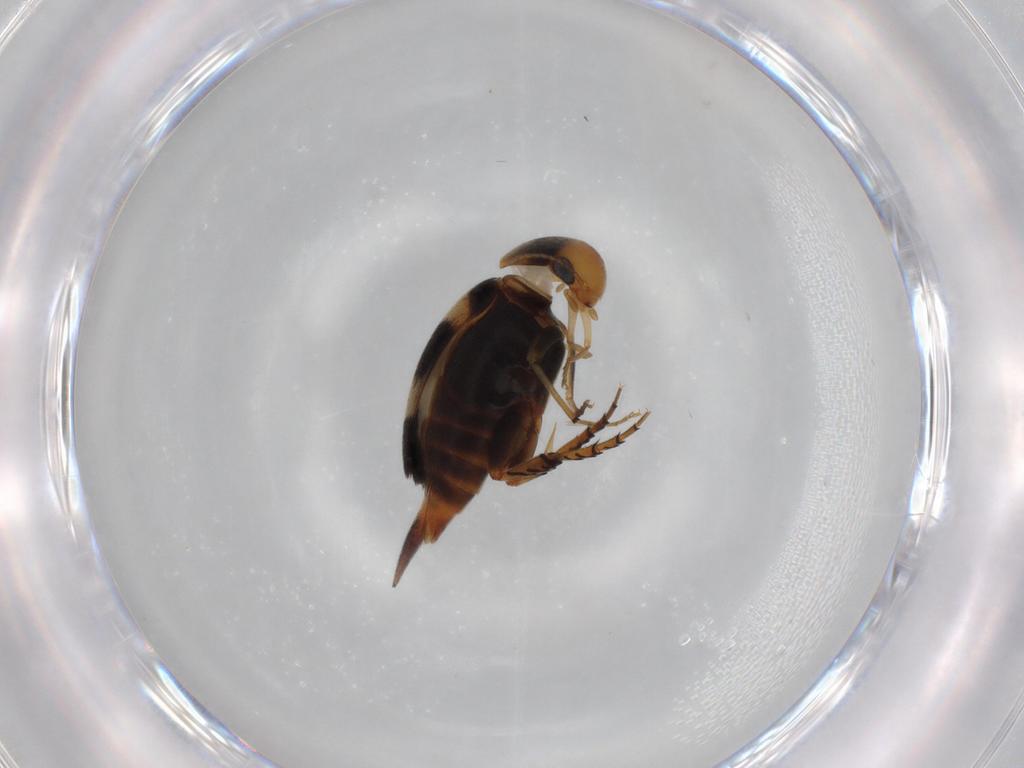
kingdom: Animalia
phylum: Arthropoda
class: Insecta
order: Coleoptera
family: Mordellidae
